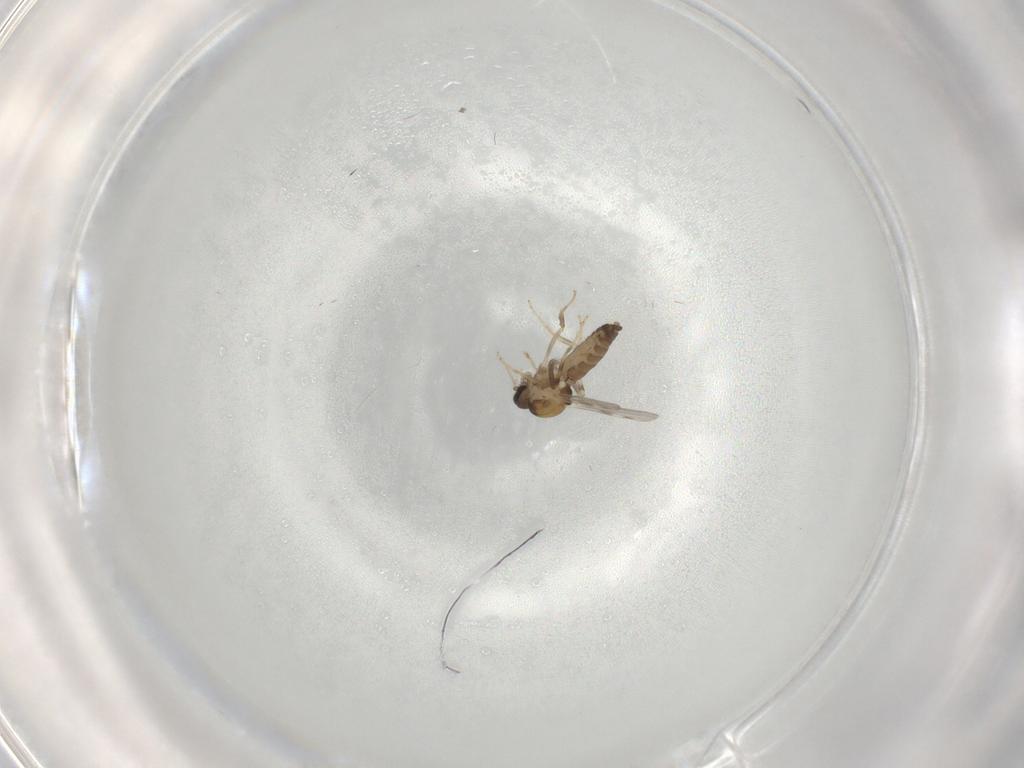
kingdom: Animalia
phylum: Arthropoda
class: Insecta
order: Diptera
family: Ceratopogonidae
